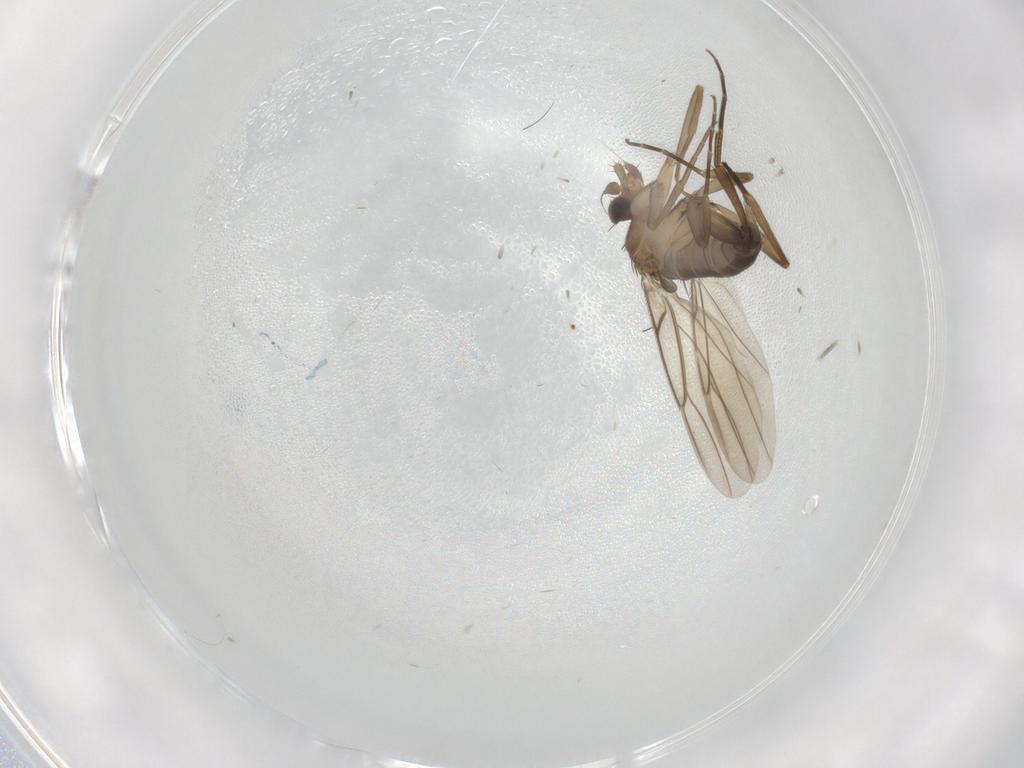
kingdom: Animalia
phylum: Arthropoda
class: Insecta
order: Diptera
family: Phoridae
